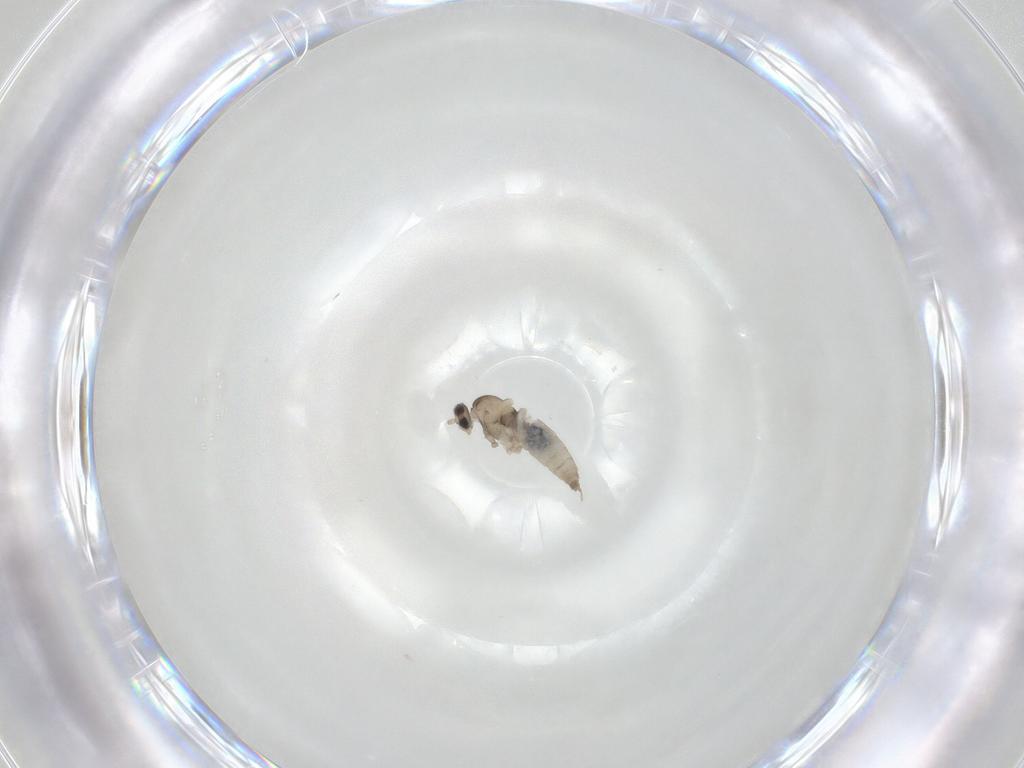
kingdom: Animalia
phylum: Arthropoda
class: Insecta
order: Diptera
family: Cecidomyiidae
